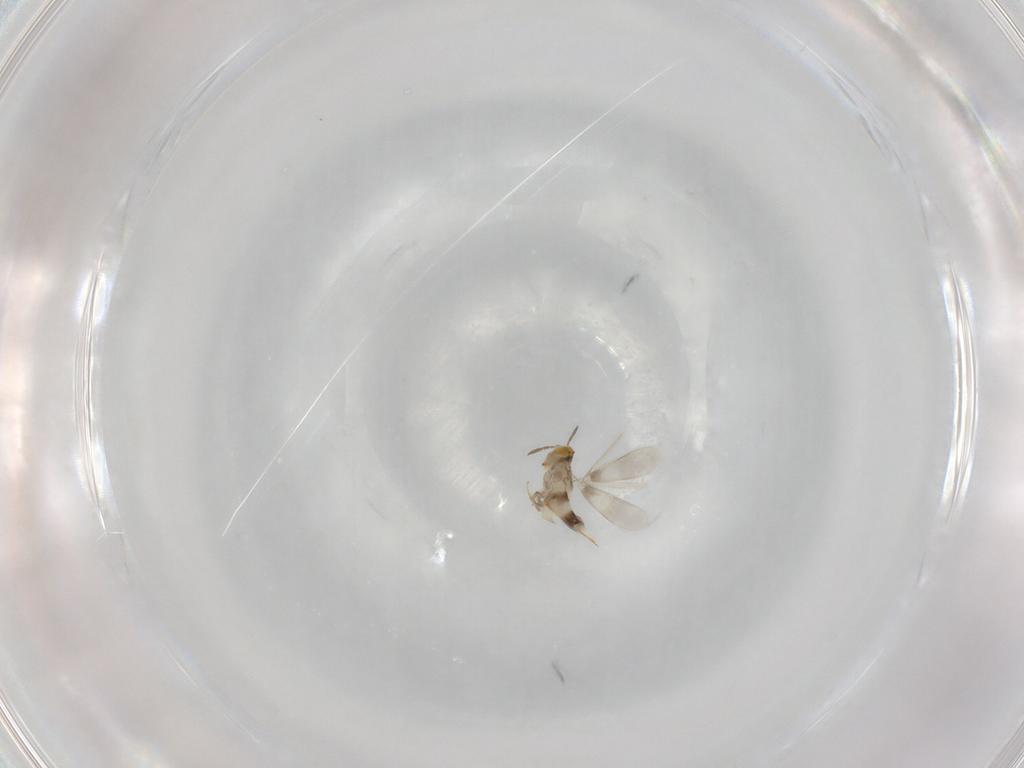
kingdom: Animalia
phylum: Arthropoda
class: Insecta
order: Hymenoptera
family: Aphelinidae
